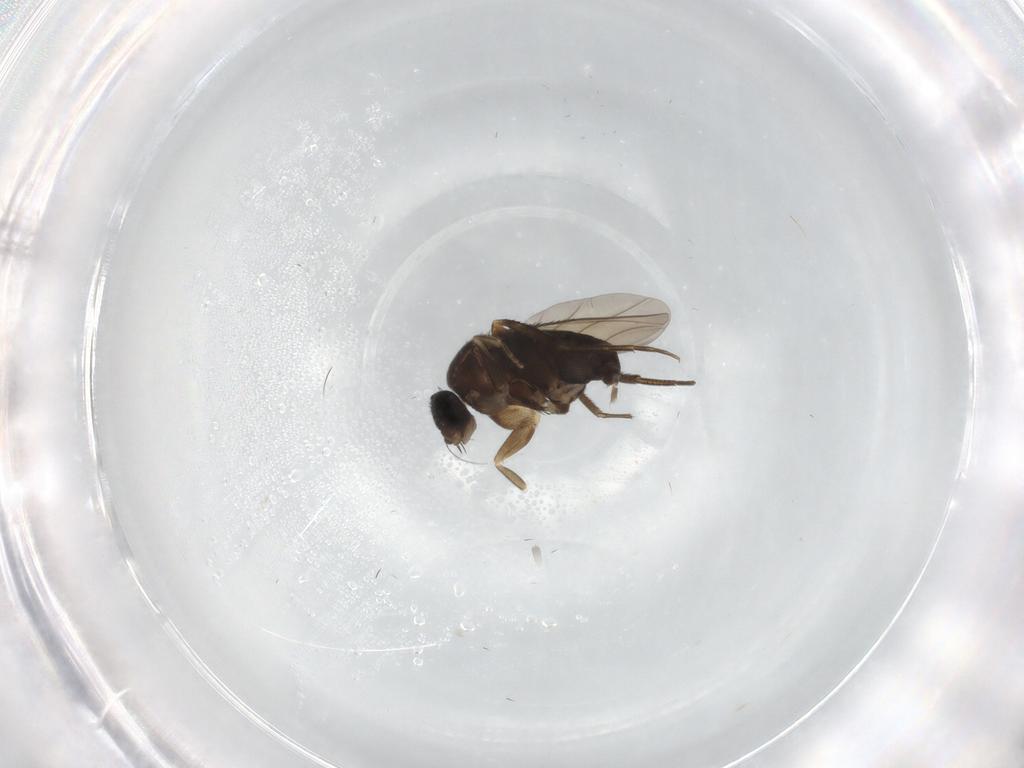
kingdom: Animalia
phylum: Arthropoda
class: Insecta
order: Diptera
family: Phoridae
